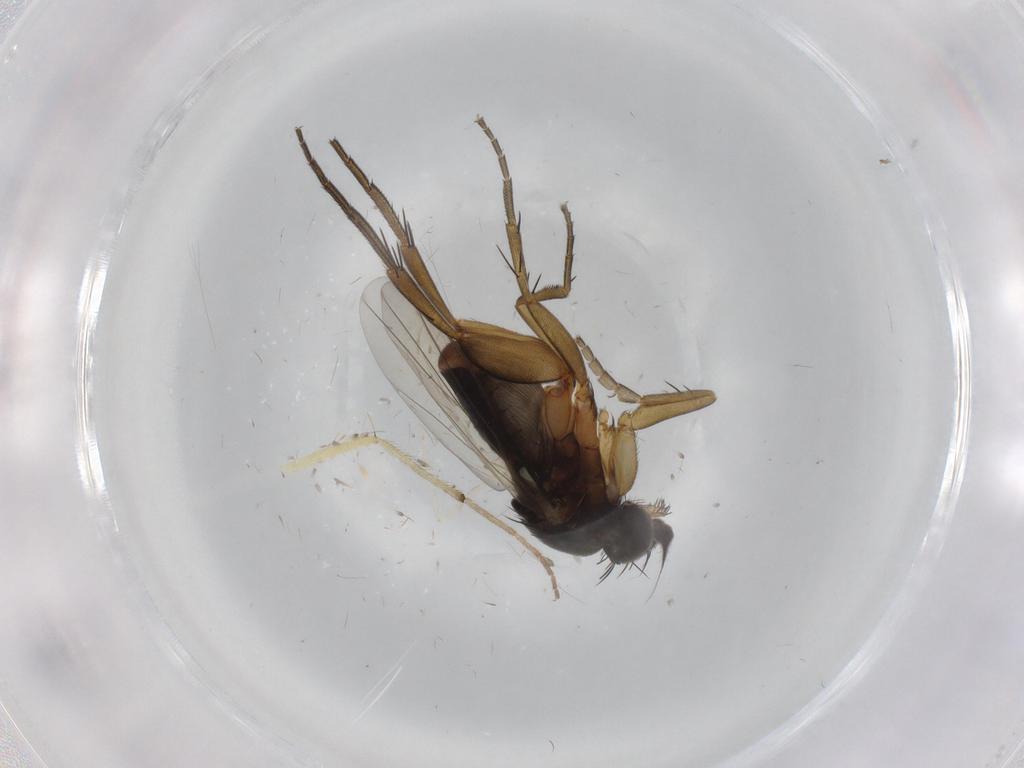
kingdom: Animalia
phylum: Arthropoda
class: Insecta
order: Diptera
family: Phoridae
